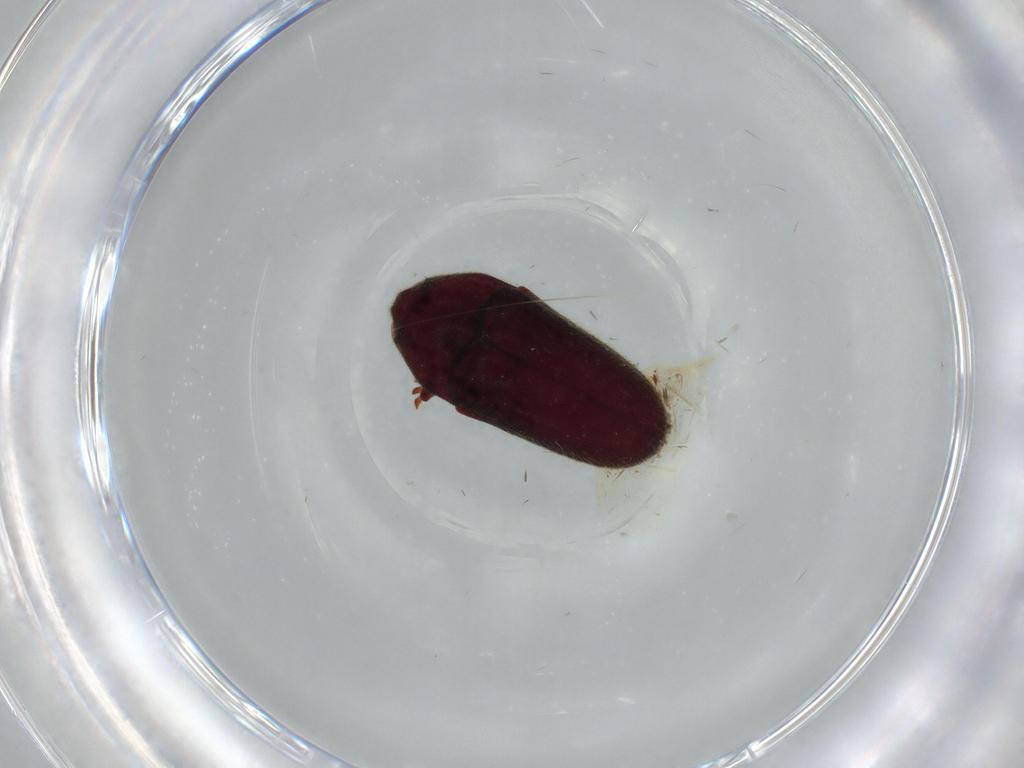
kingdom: Animalia
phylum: Arthropoda
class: Insecta
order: Coleoptera
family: Throscidae
